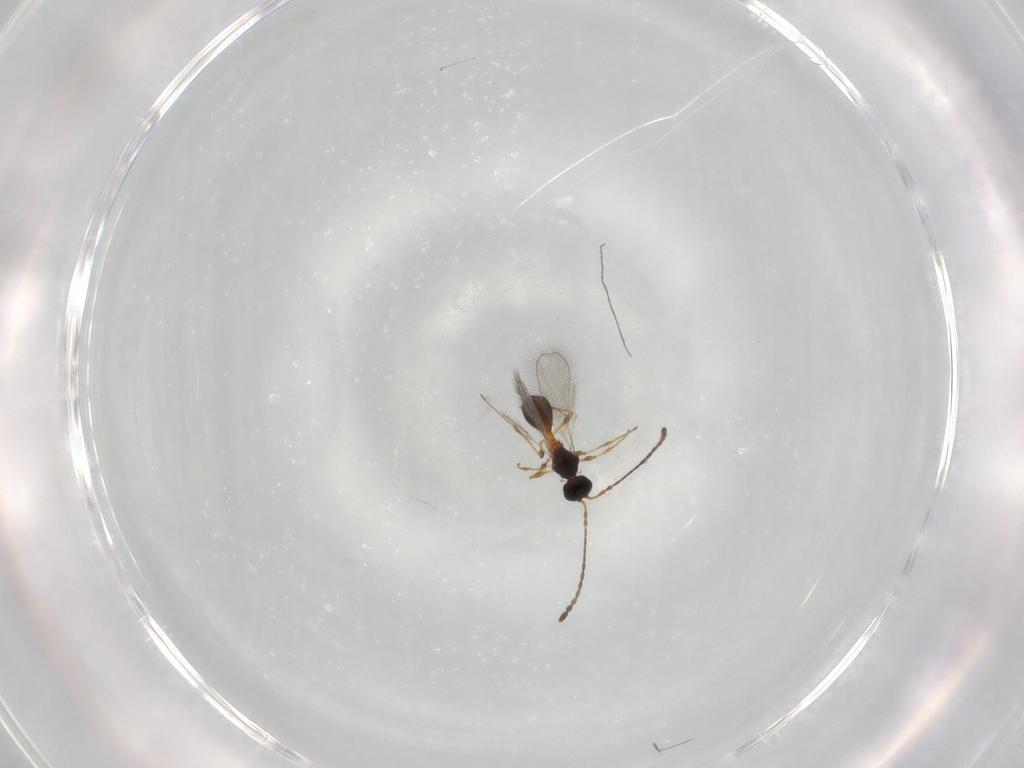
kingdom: Animalia
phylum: Arthropoda
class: Insecta
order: Hymenoptera
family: Diapriidae
